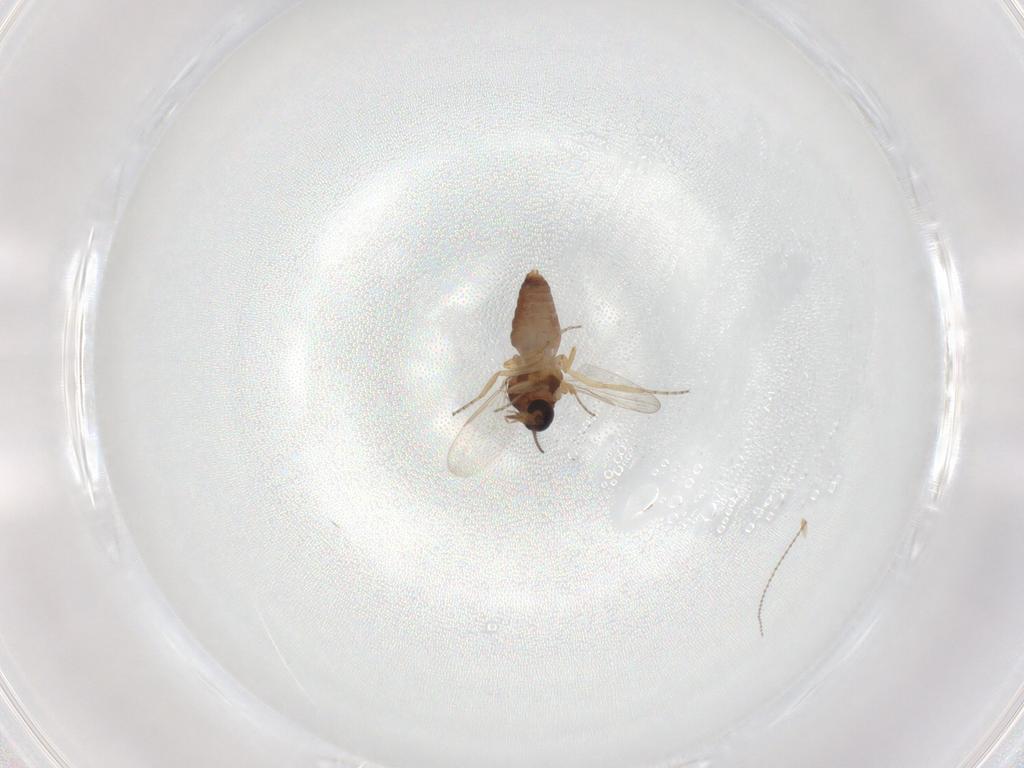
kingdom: Animalia
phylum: Arthropoda
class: Insecta
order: Diptera
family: Ceratopogonidae
